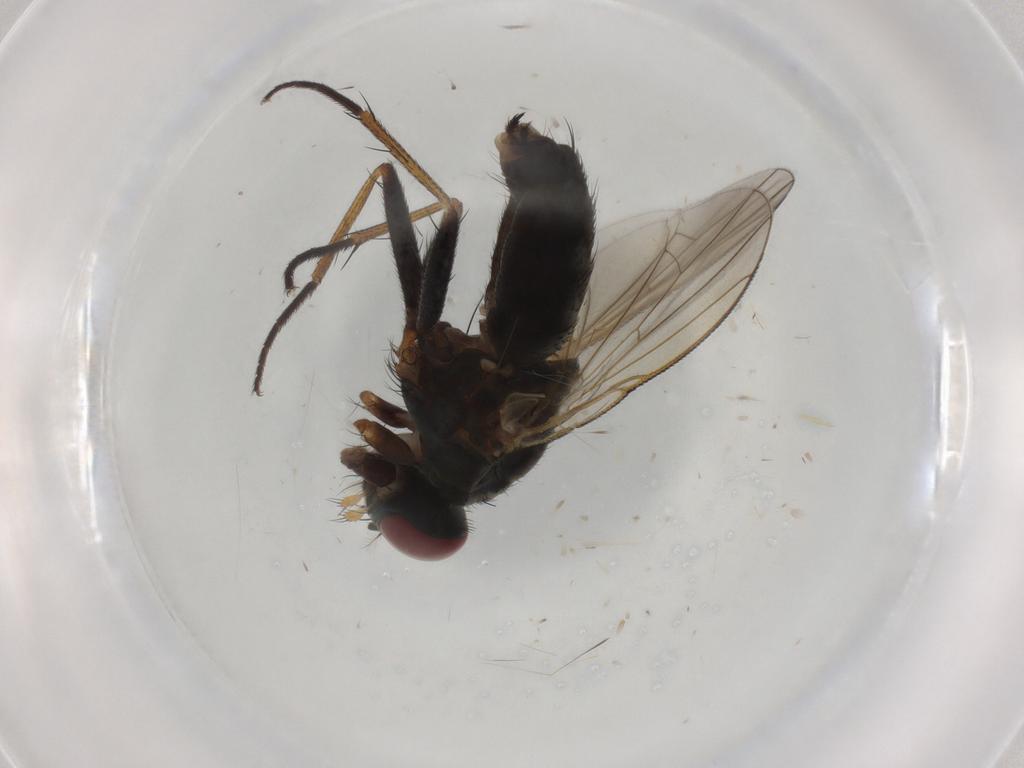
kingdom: Animalia
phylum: Arthropoda
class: Insecta
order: Diptera
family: Muscidae
